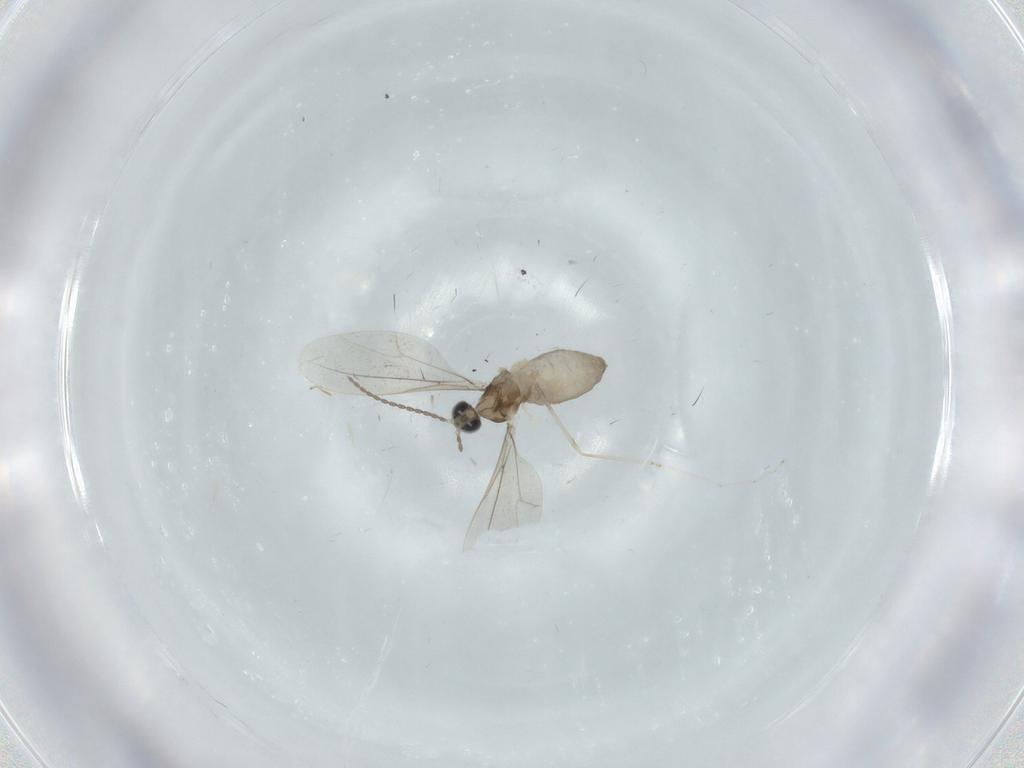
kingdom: Animalia
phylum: Arthropoda
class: Insecta
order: Diptera
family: Cecidomyiidae
